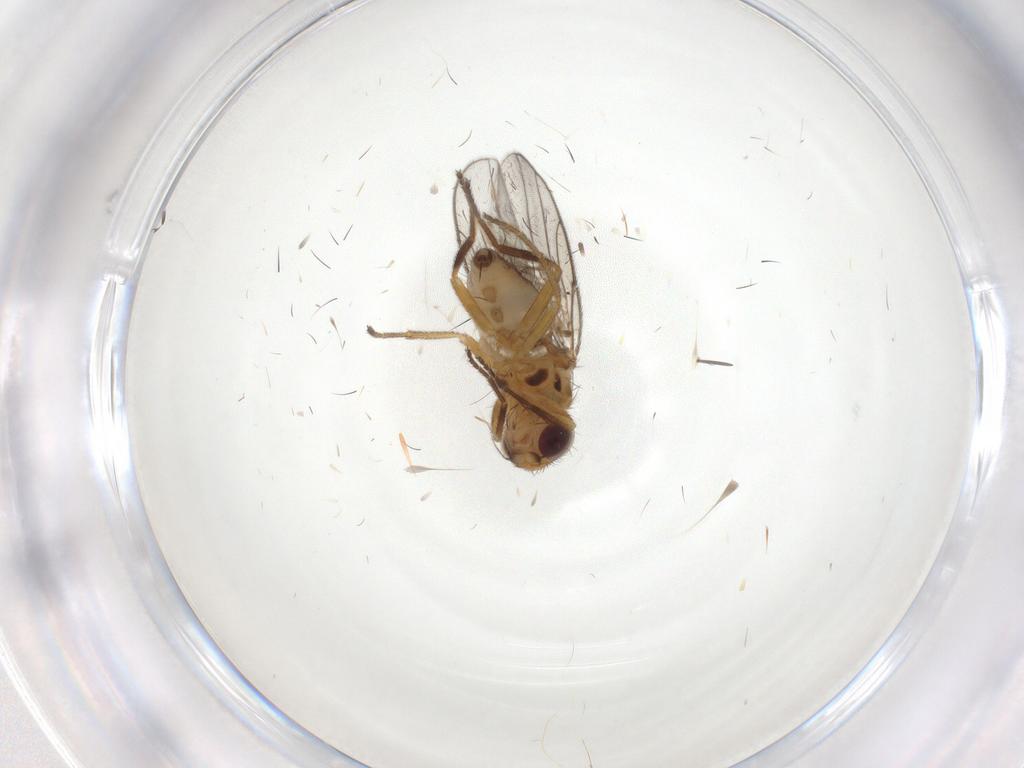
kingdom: Animalia
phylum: Arthropoda
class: Insecta
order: Diptera
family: Chloropidae
